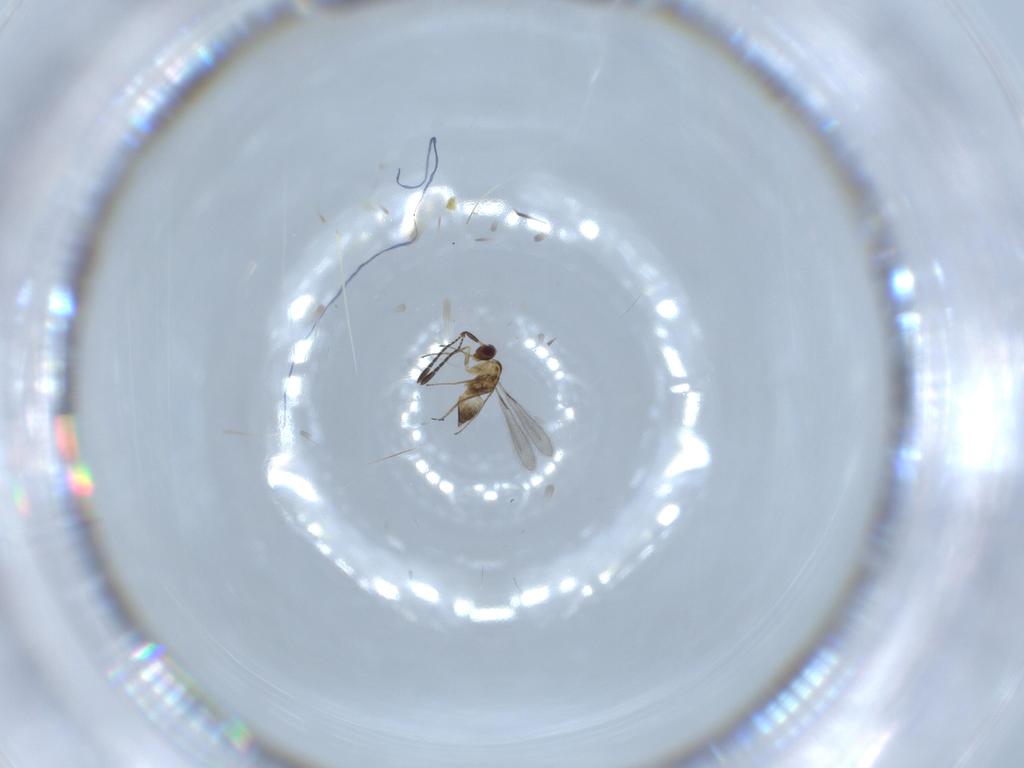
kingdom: Animalia
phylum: Arthropoda
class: Insecta
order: Hymenoptera
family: Mymaridae
